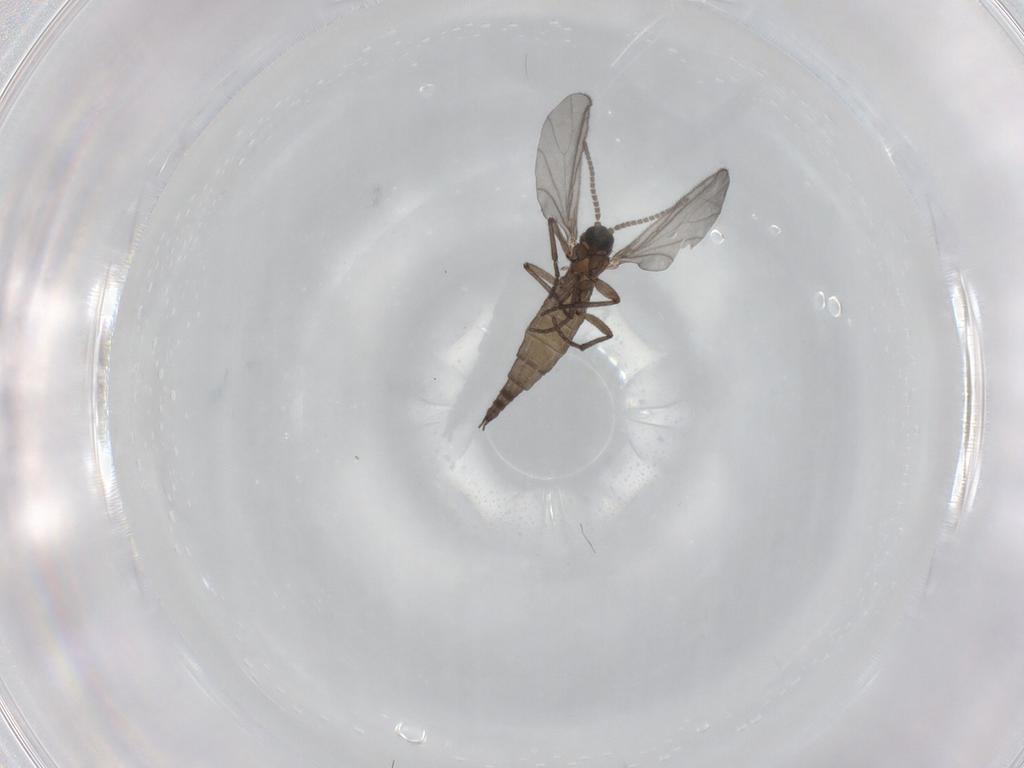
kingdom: Animalia
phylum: Arthropoda
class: Insecta
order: Diptera
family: Sciaridae
